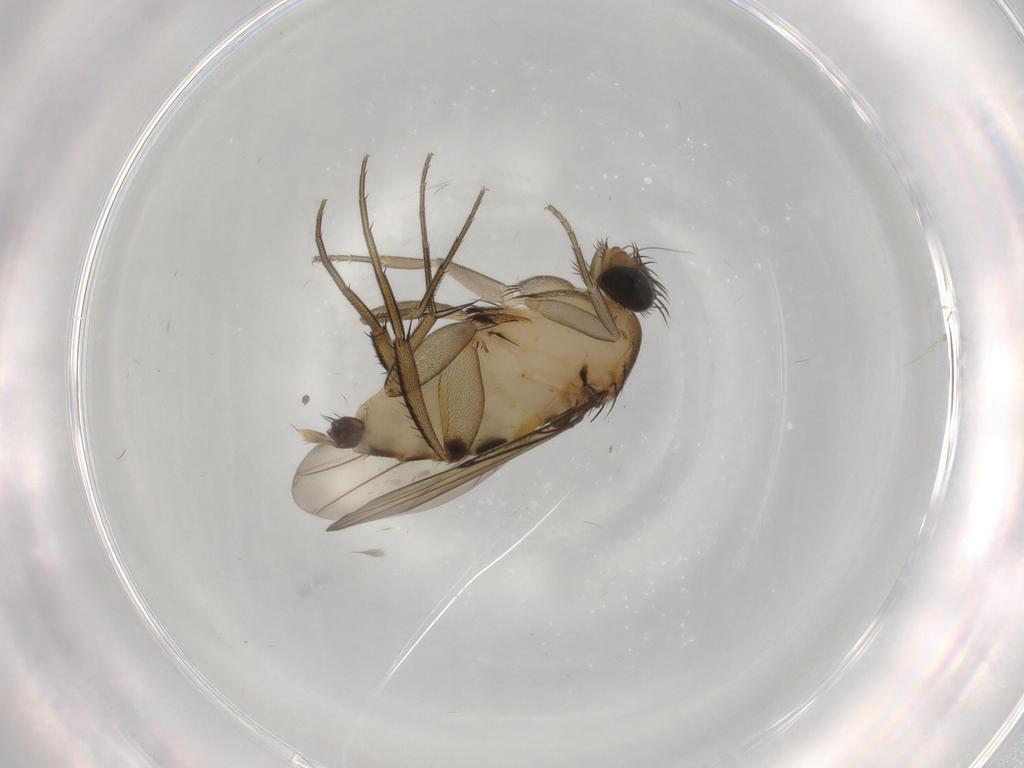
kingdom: Animalia
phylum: Arthropoda
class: Insecta
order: Diptera
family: Phoridae
